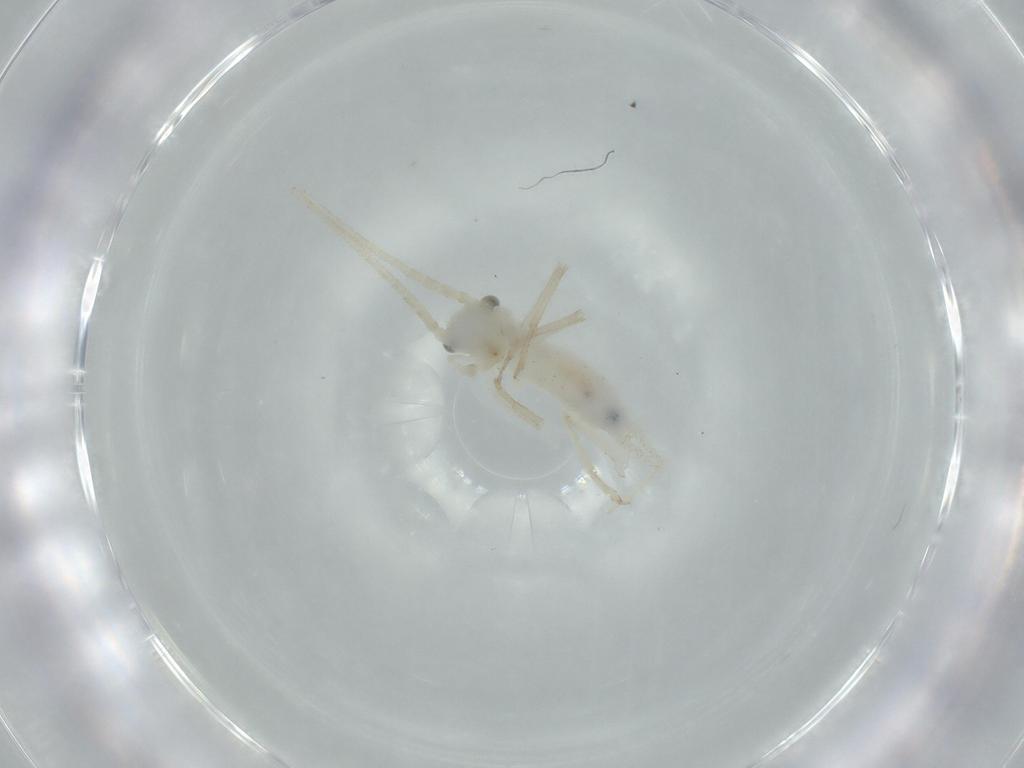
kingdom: Animalia
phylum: Arthropoda
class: Insecta
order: Orthoptera
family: Trigonidiidae
